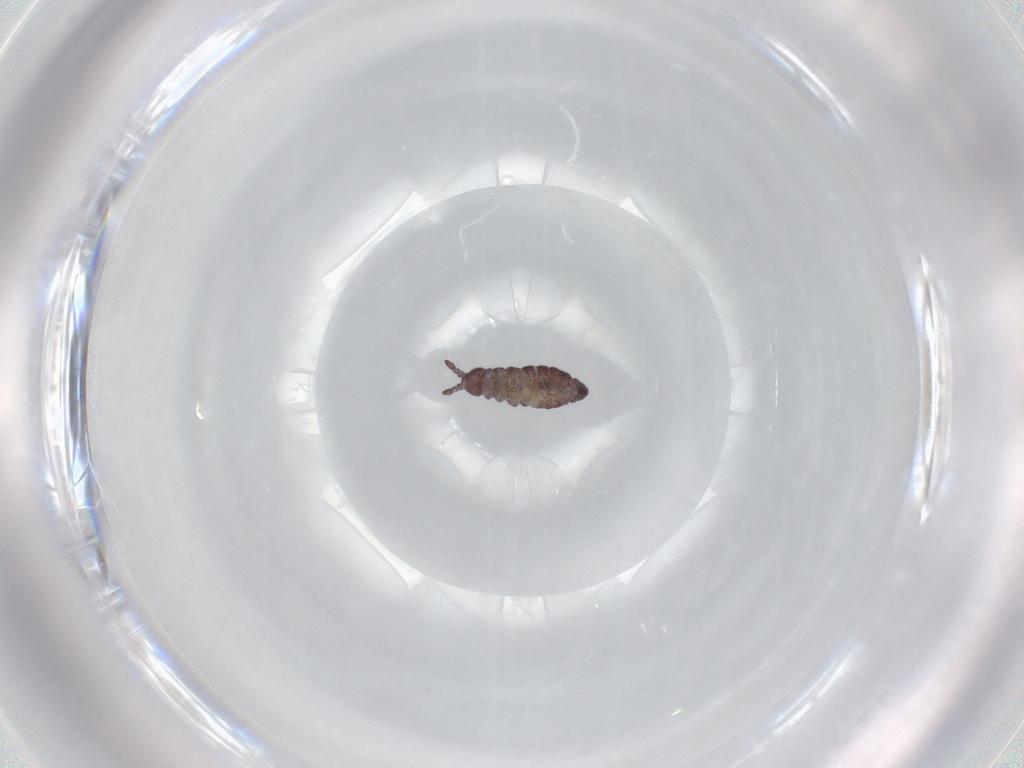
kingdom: Animalia
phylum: Arthropoda
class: Collembola
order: Poduromorpha
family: Hypogastruridae
